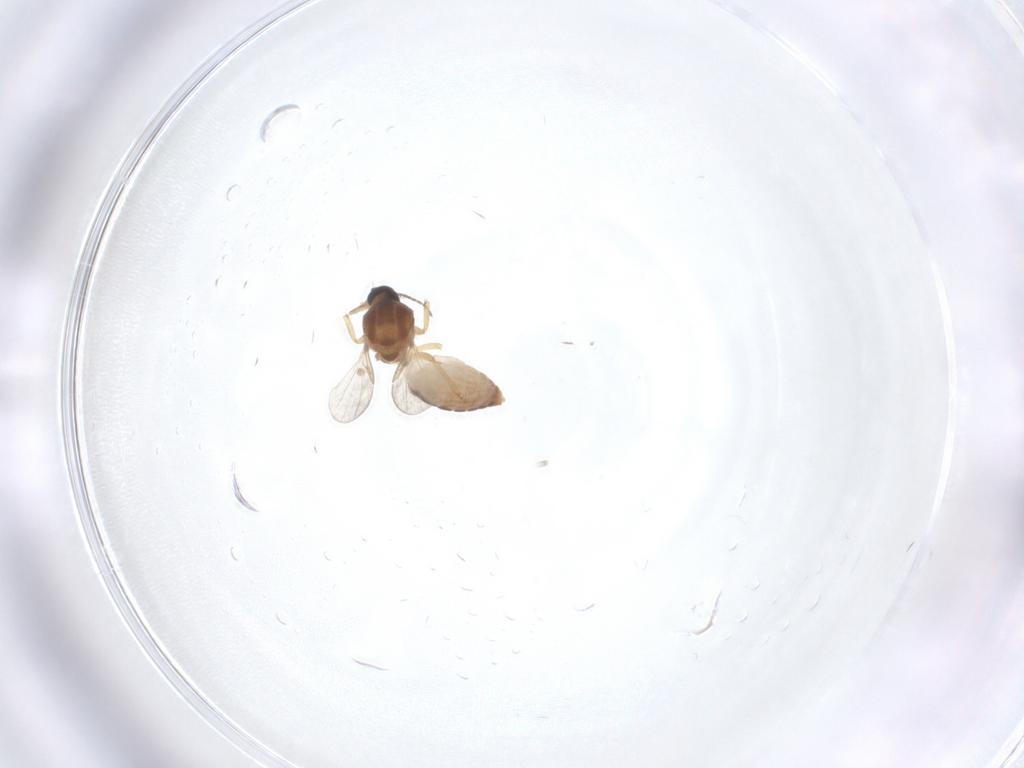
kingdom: Animalia
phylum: Arthropoda
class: Insecta
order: Diptera
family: Ceratopogonidae
